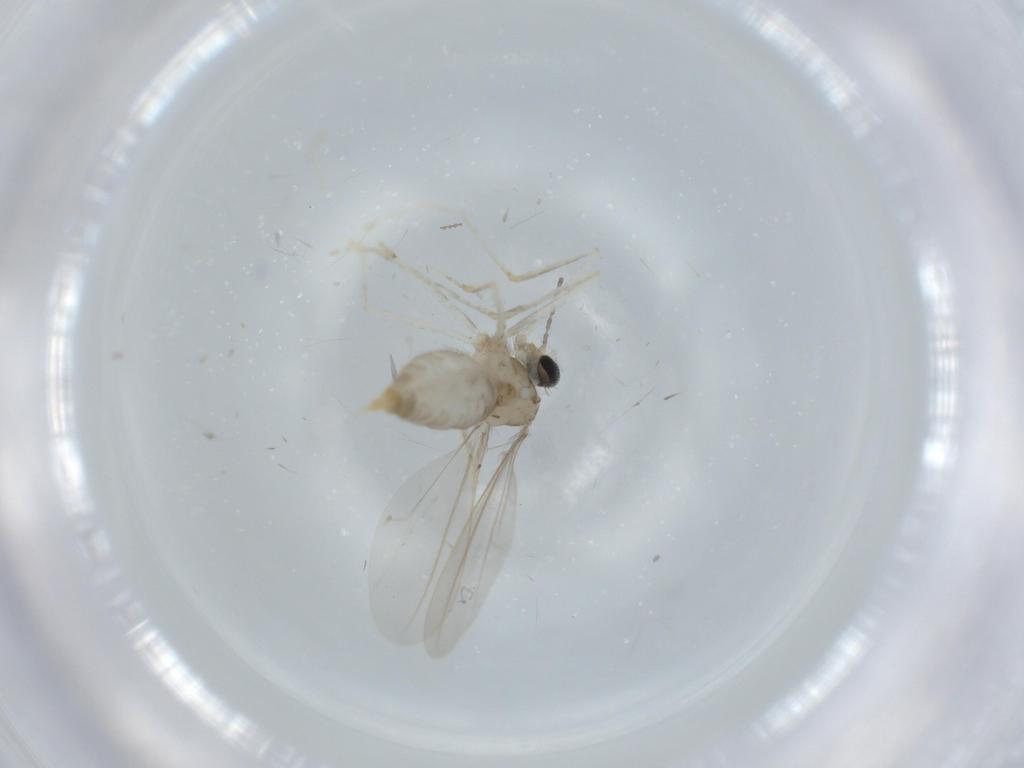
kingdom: Animalia
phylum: Arthropoda
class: Insecta
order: Diptera
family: Cecidomyiidae
